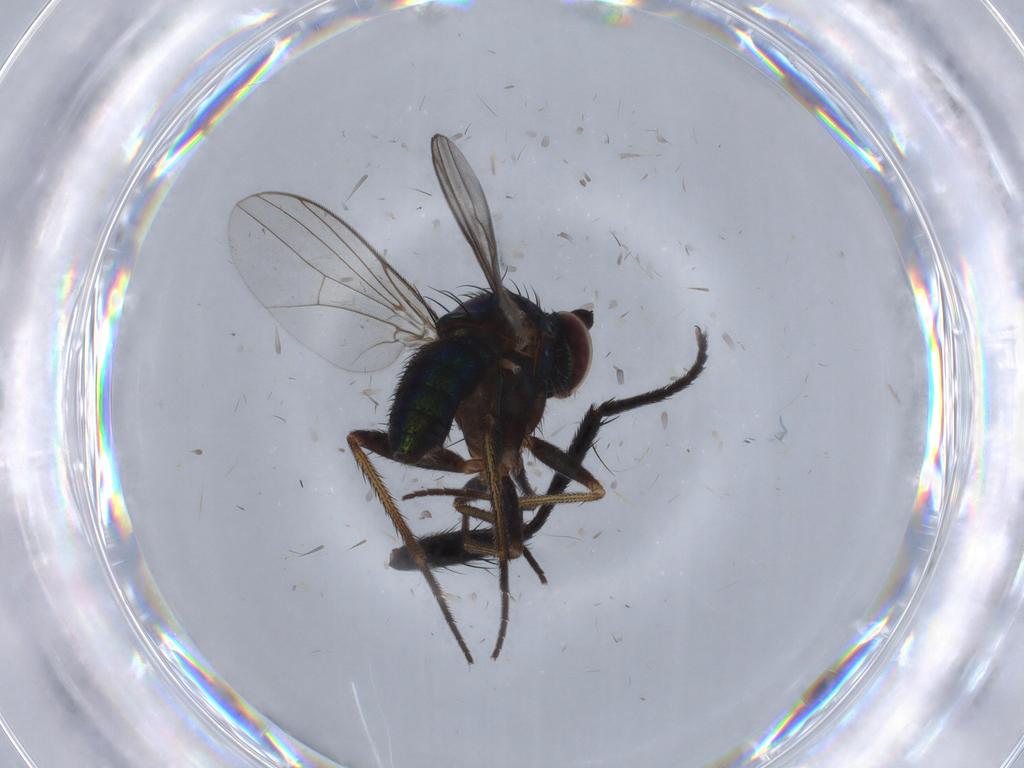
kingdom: Animalia
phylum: Arthropoda
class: Insecta
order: Diptera
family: Dolichopodidae
